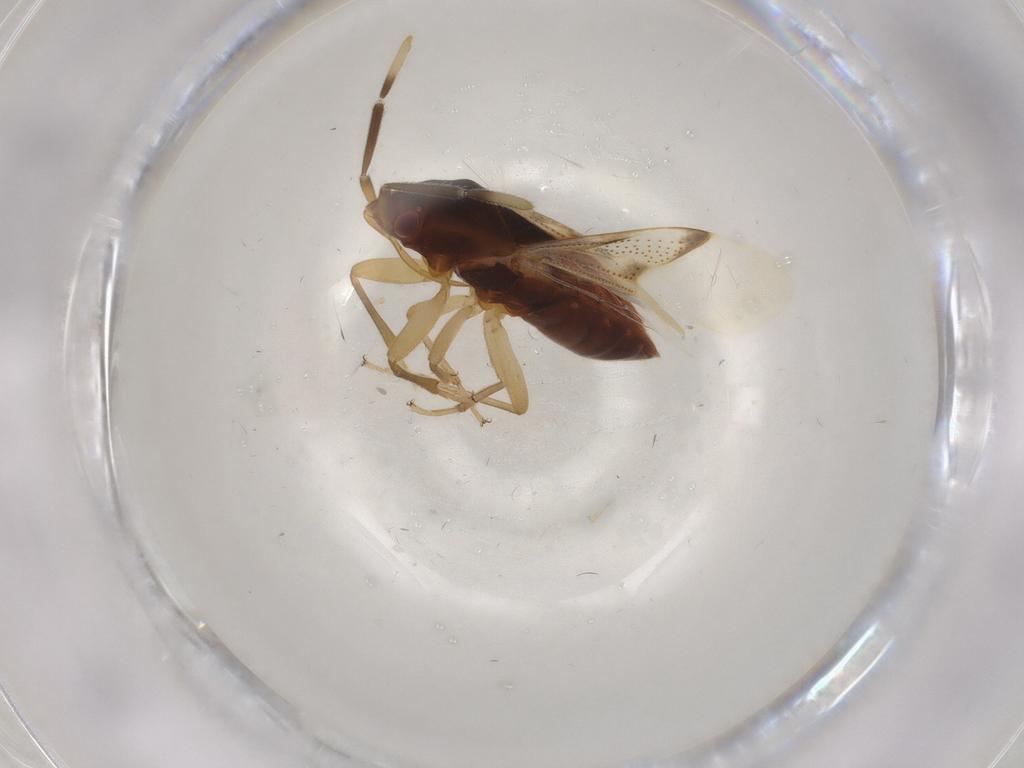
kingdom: Animalia
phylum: Arthropoda
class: Insecta
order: Hemiptera
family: Rhyparochromidae
